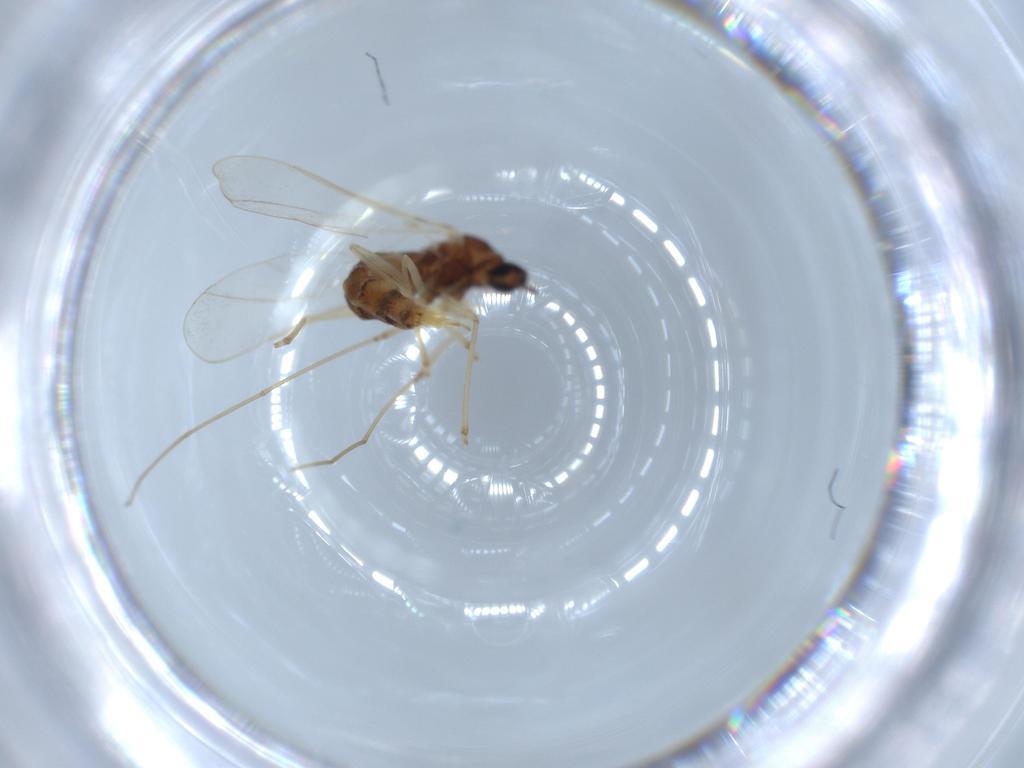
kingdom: Animalia
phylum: Arthropoda
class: Insecta
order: Diptera
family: Cecidomyiidae
